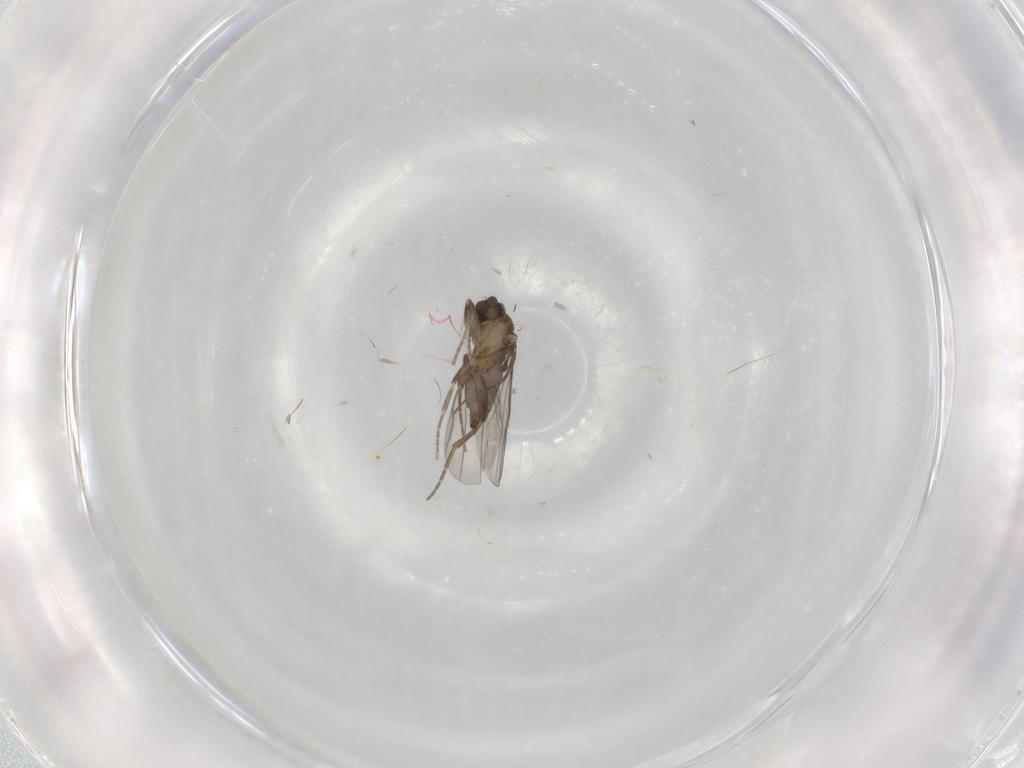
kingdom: Animalia
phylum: Arthropoda
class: Insecta
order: Diptera
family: Cecidomyiidae
